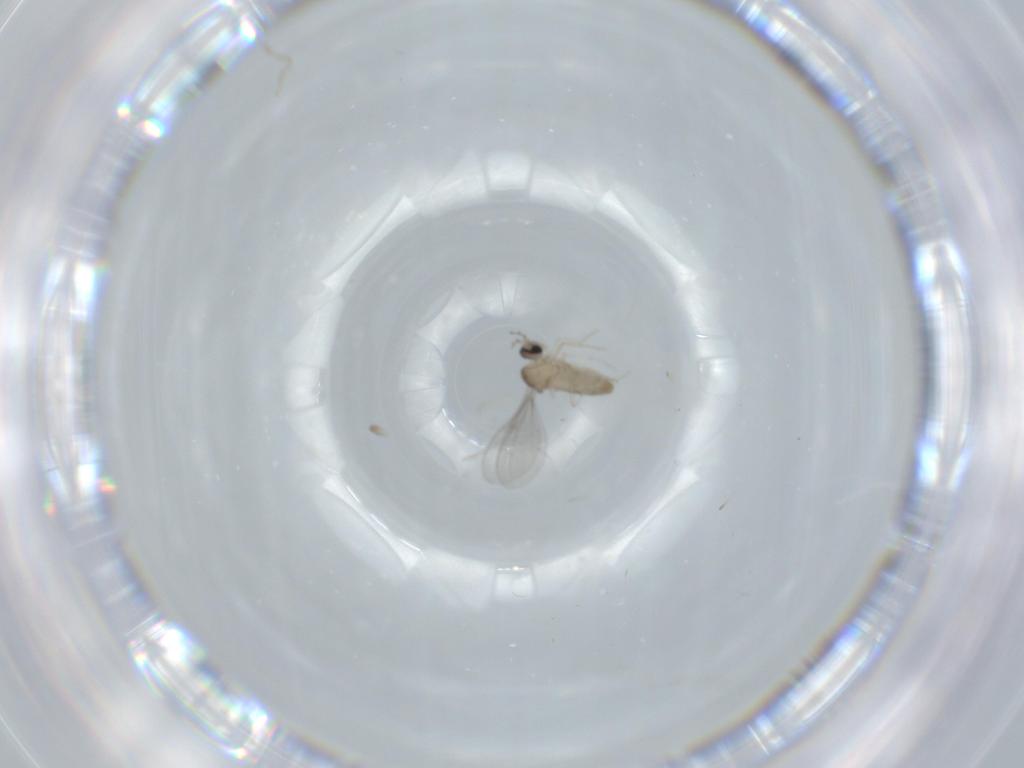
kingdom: Animalia
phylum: Arthropoda
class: Insecta
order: Diptera
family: Cecidomyiidae
